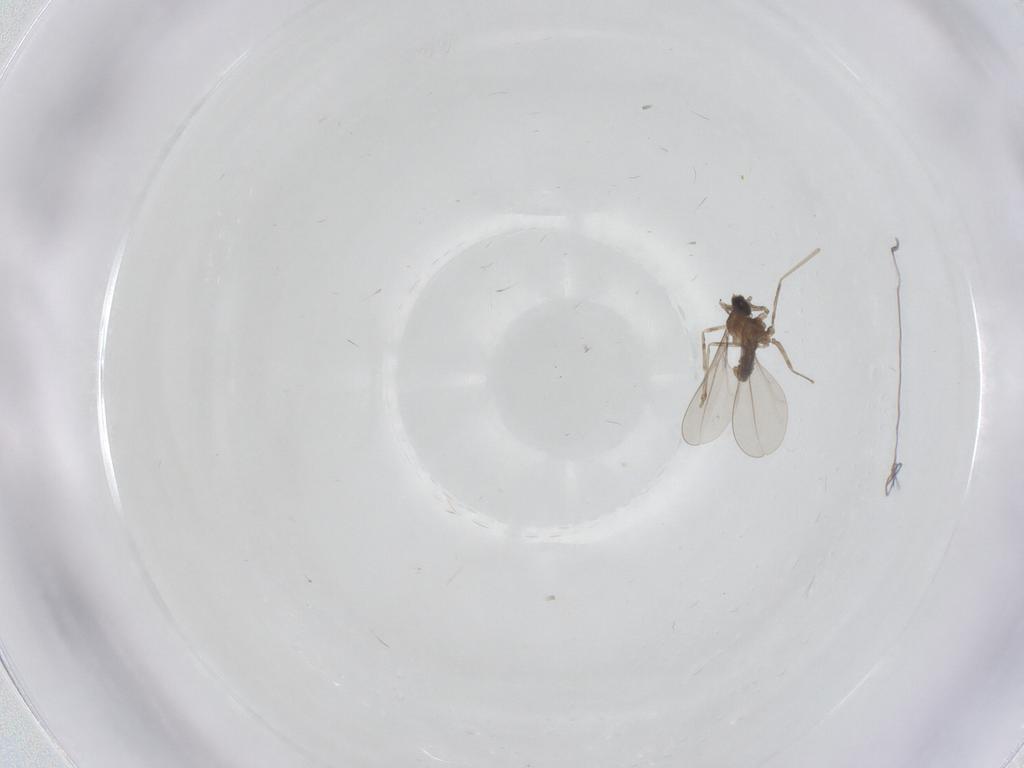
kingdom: Animalia
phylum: Arthropoda
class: Insecta
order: Diptera
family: Cecidomyiidae
